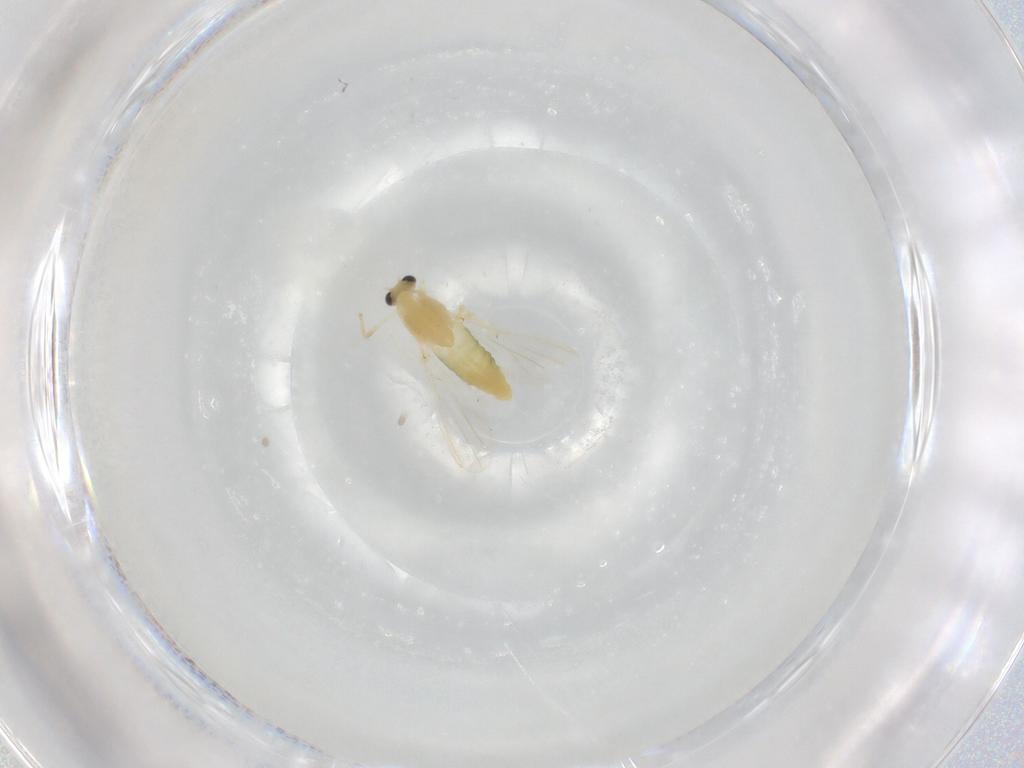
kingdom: Animalia
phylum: Arthropoda
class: Insecta
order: Diptera
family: Chironomidae
